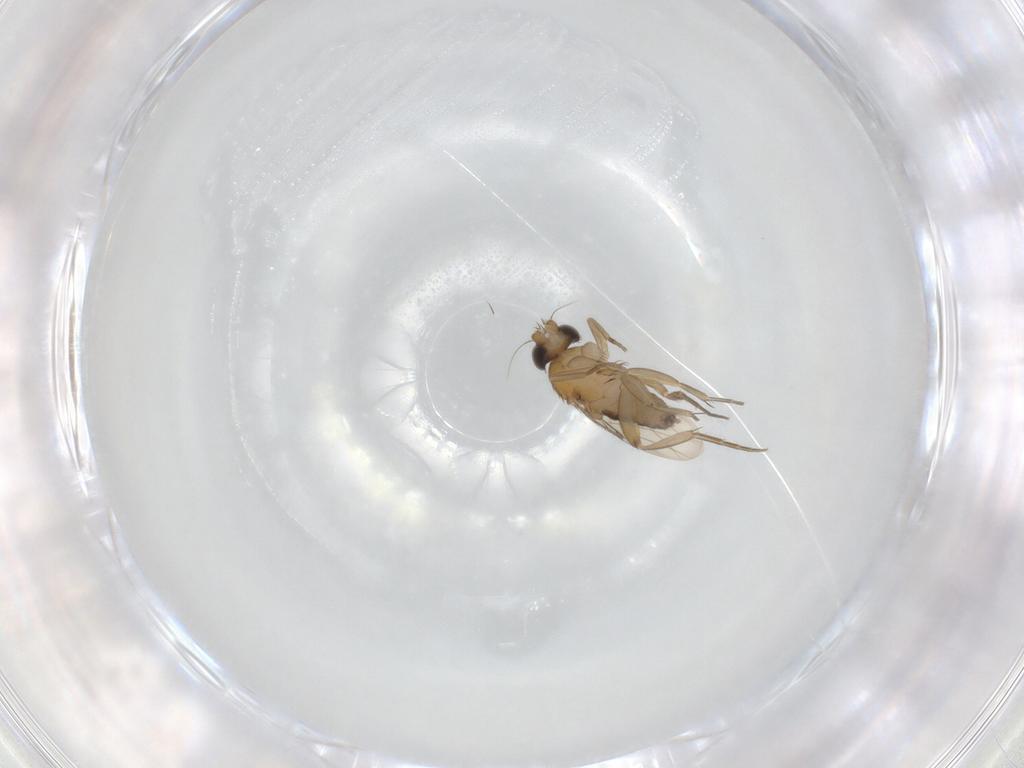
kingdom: Animalia
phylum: Arthropoda
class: Insecta
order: Diptera
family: Phoridae
